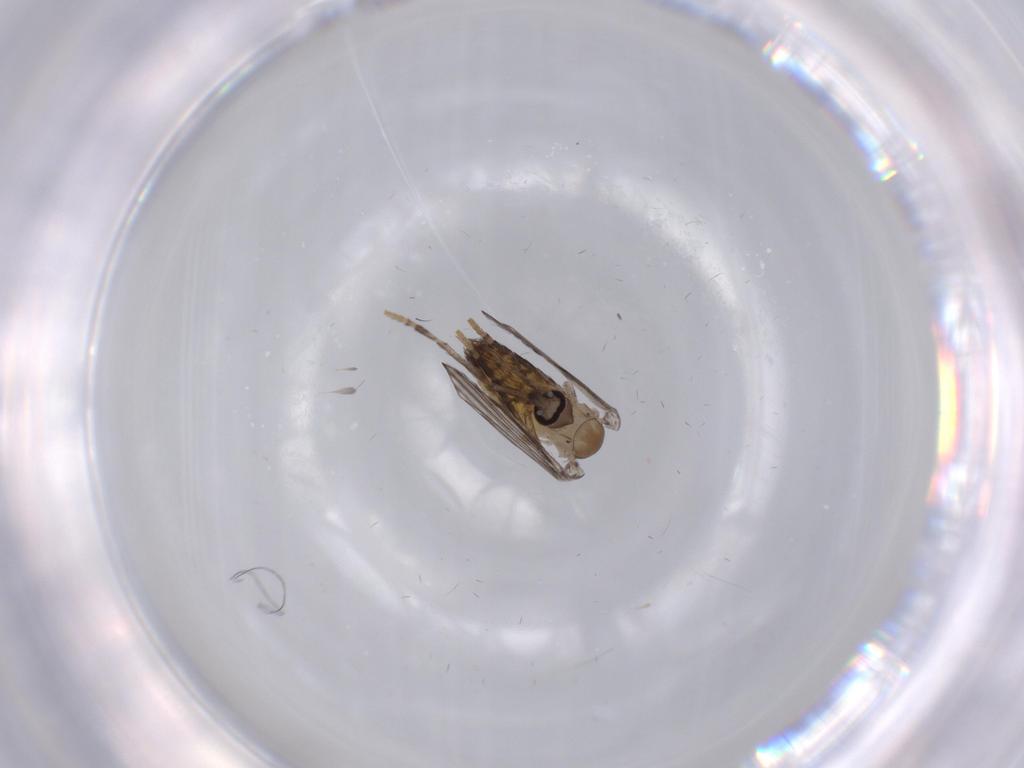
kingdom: Animalia
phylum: Arthropoda
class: Insecta
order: Diptera
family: Psychodidae
